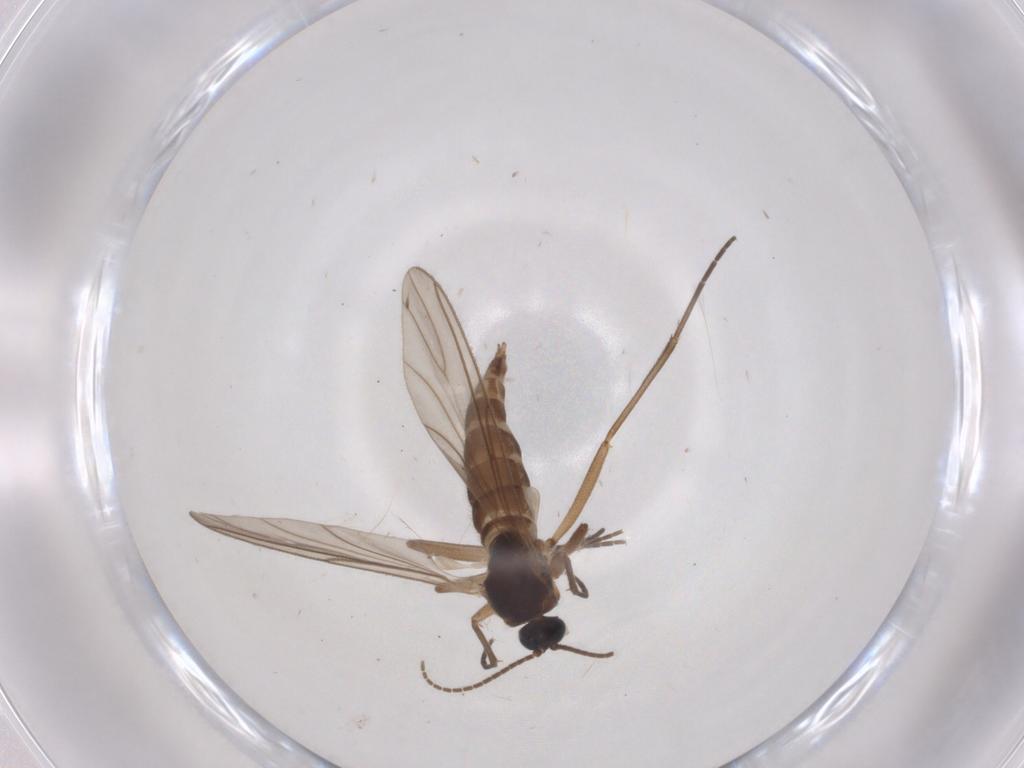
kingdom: Animalia
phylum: Arthropoda
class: Insecta
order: Diptera
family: Sciaridae
